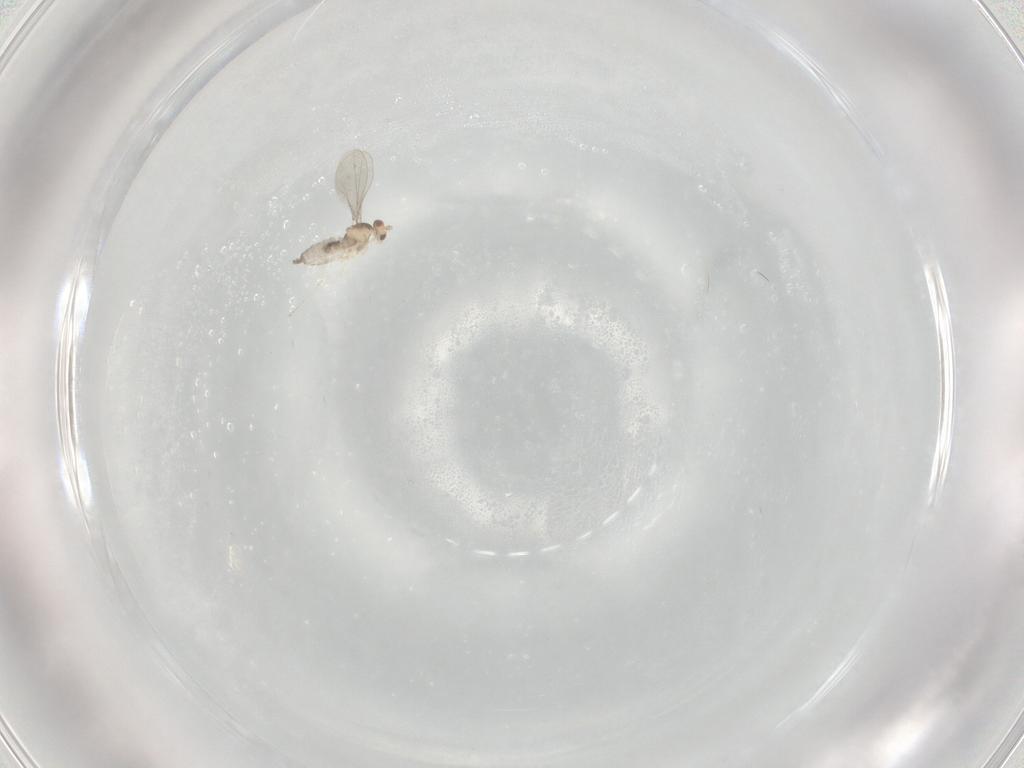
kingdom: Animalia
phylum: Arthropoda
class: Insecta
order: Diptera
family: Cecidomyiidae
